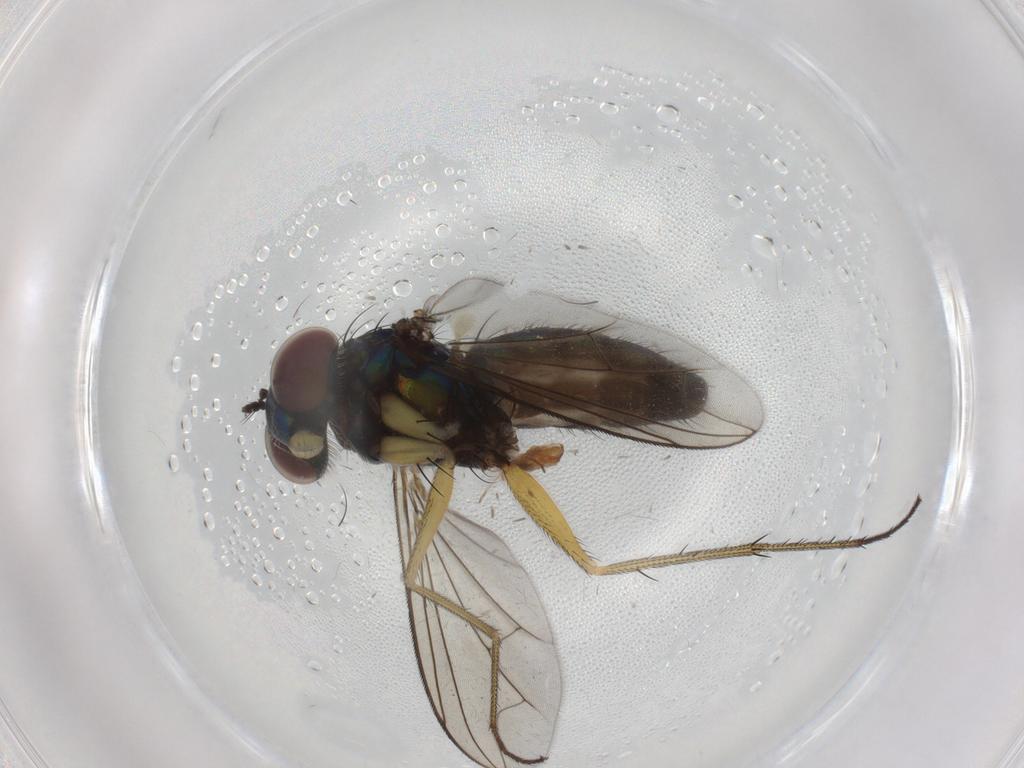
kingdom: Animalia
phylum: Arthropoda
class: Insecta
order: Diptera
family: Dolichopodidae
